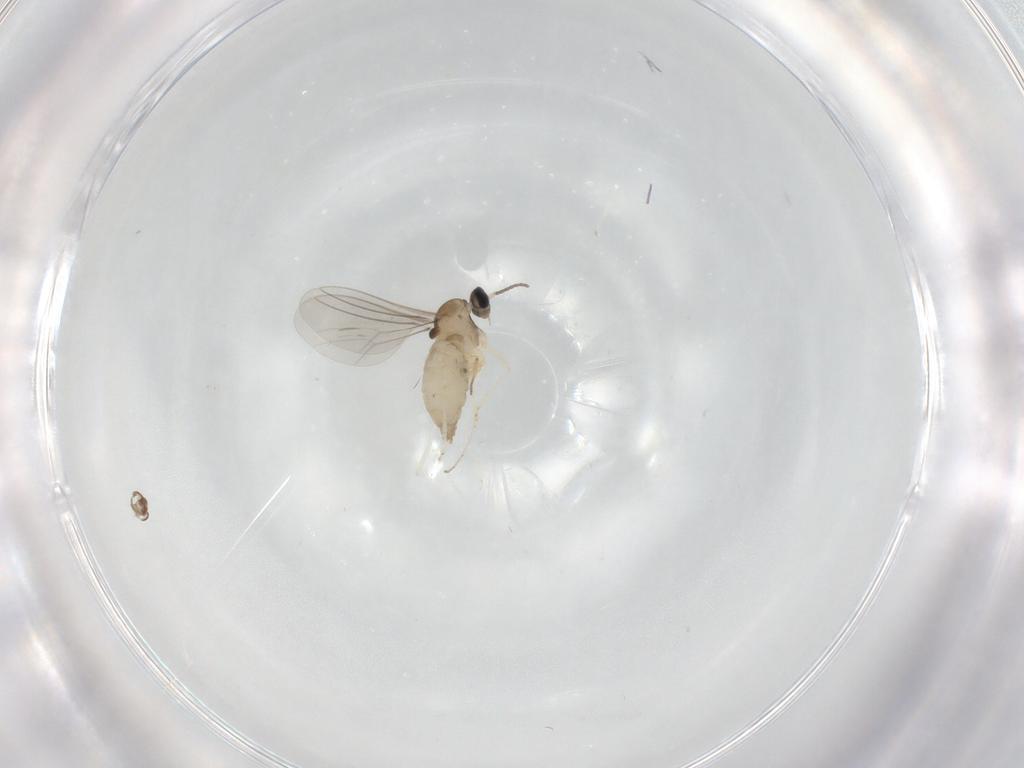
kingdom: Animalia
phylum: Arthropoda
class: Insecta
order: Diptera
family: Cecidomyiidae
